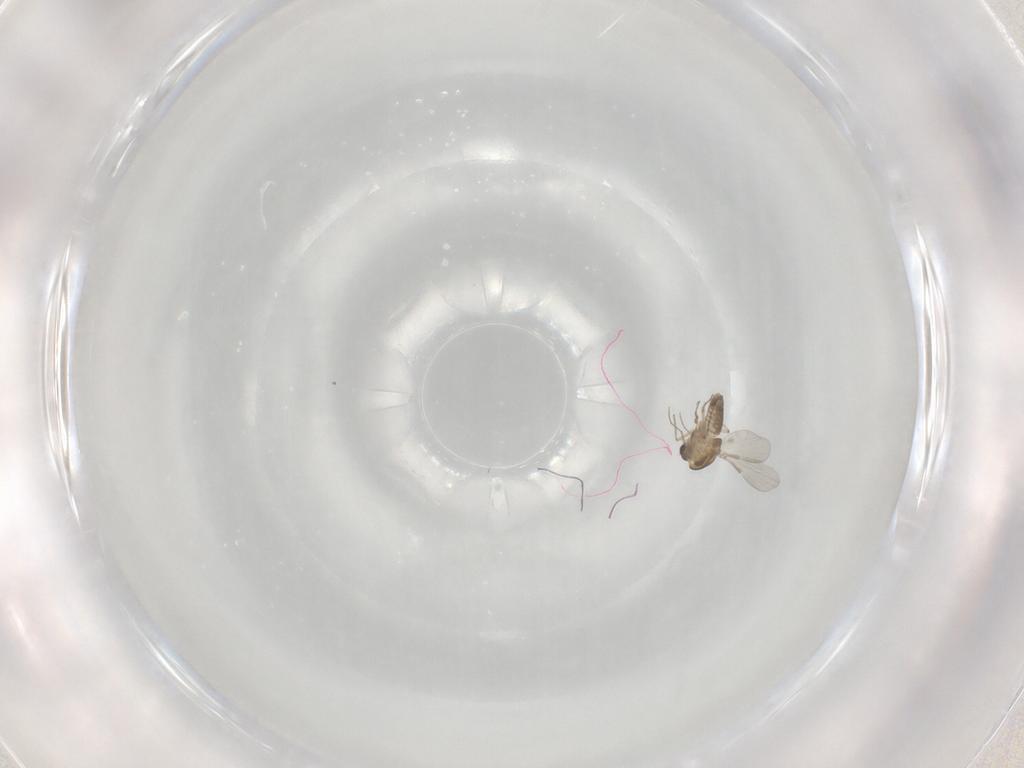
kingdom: Animalia
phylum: Arthropoda
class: Insecta
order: Diptera
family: Chironomidae
